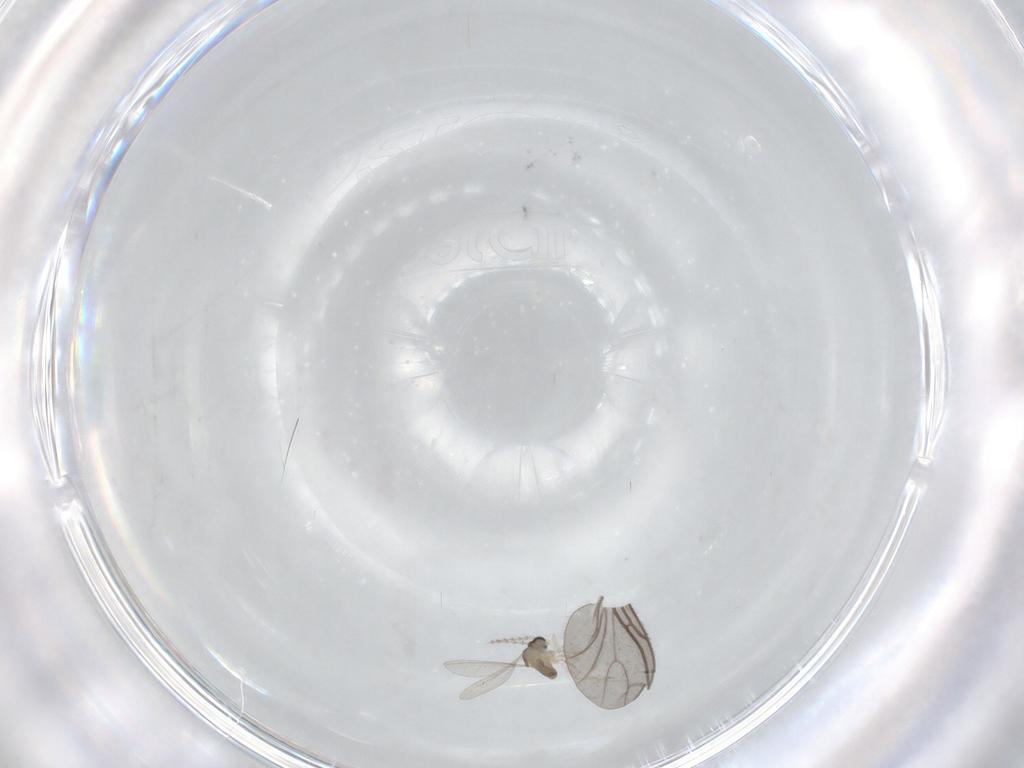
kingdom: Animalia
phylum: Arthropoda
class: Insecta
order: Diptera
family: Cecidomyiidae
